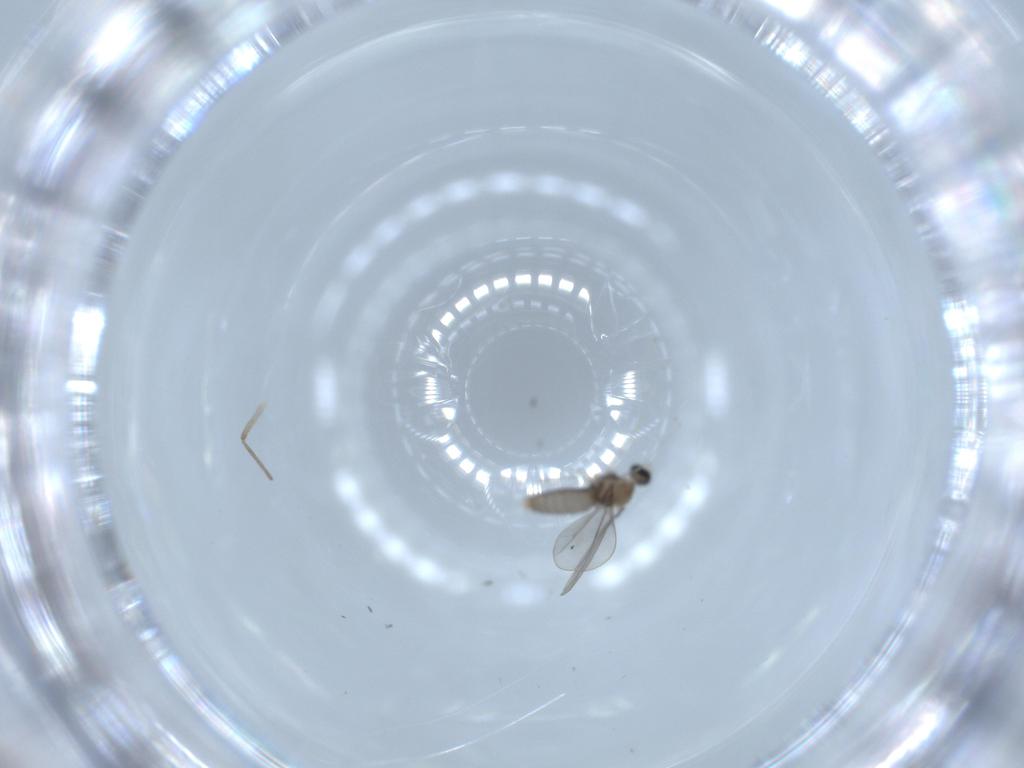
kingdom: Animalia
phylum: Arthropoda
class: Insecta
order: Diptera
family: Cecidomyiidae
